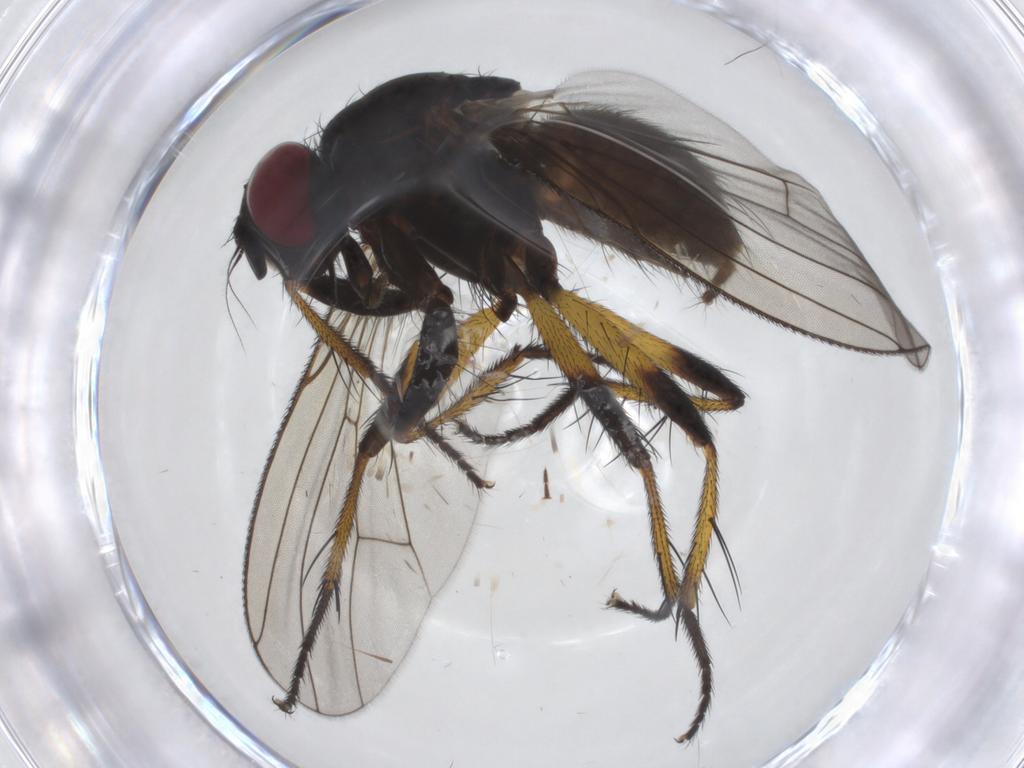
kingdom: Animalia
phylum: Arthropoda
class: Insecta
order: Diptera
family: Muscidae
